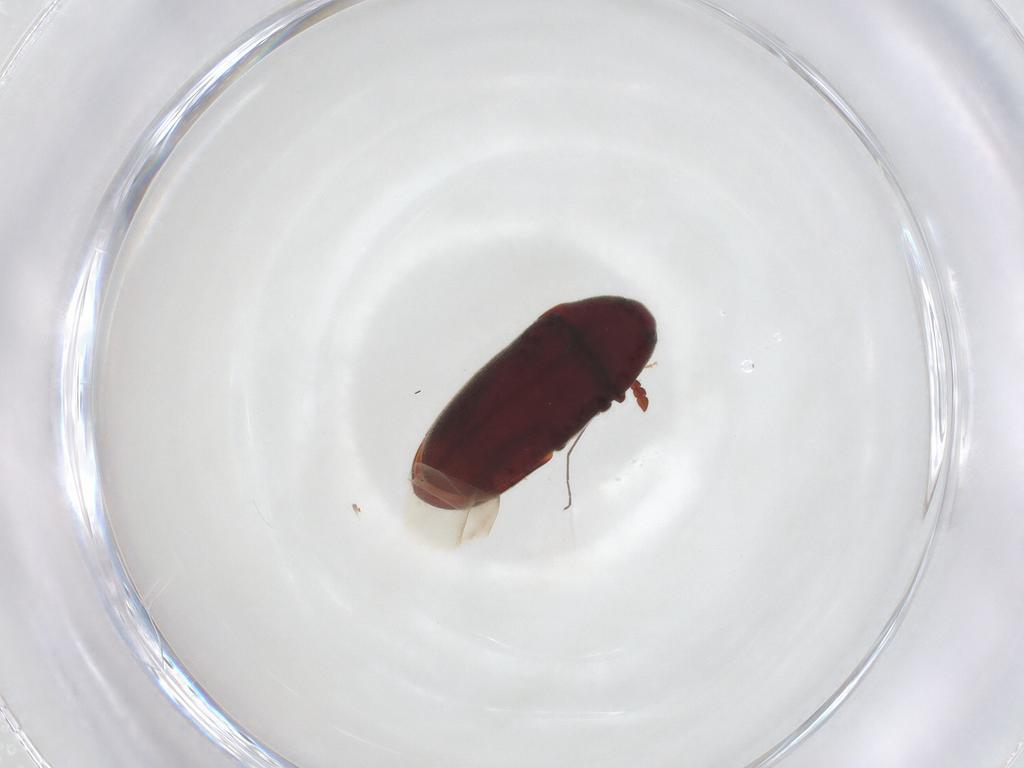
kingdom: Animalia
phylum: Arthropoda
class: Insecta
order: Coleoptera
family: Throscidae
